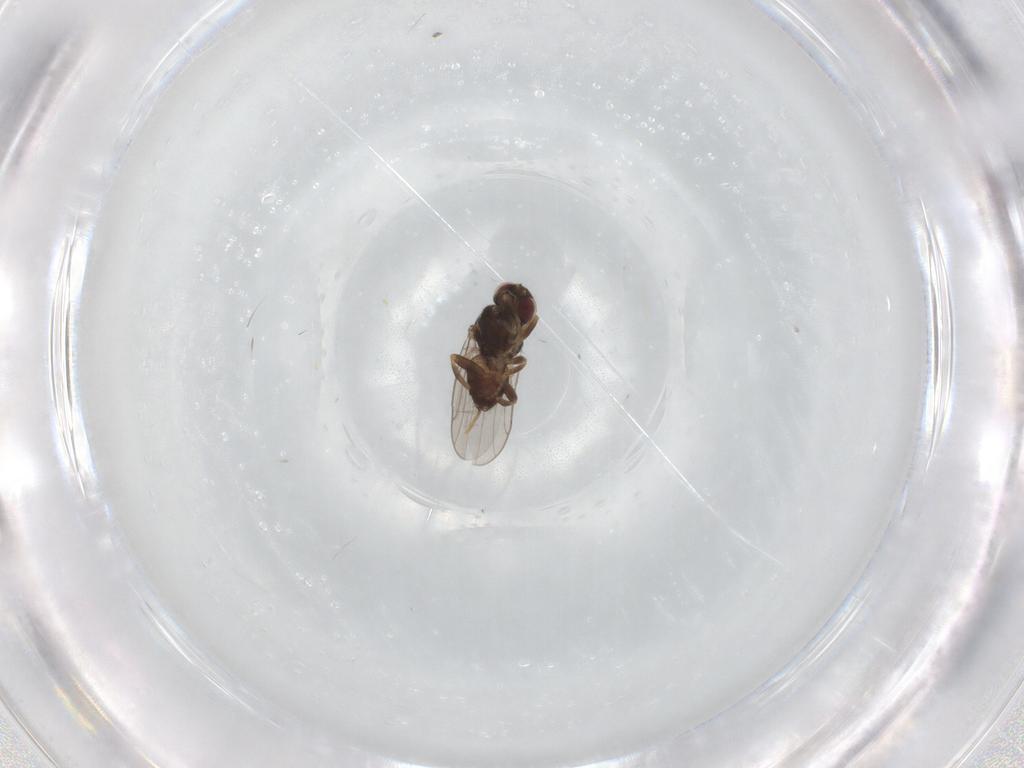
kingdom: Animalia
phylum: Arthropoda
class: Insecta
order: Diptera
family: Chloropidae
